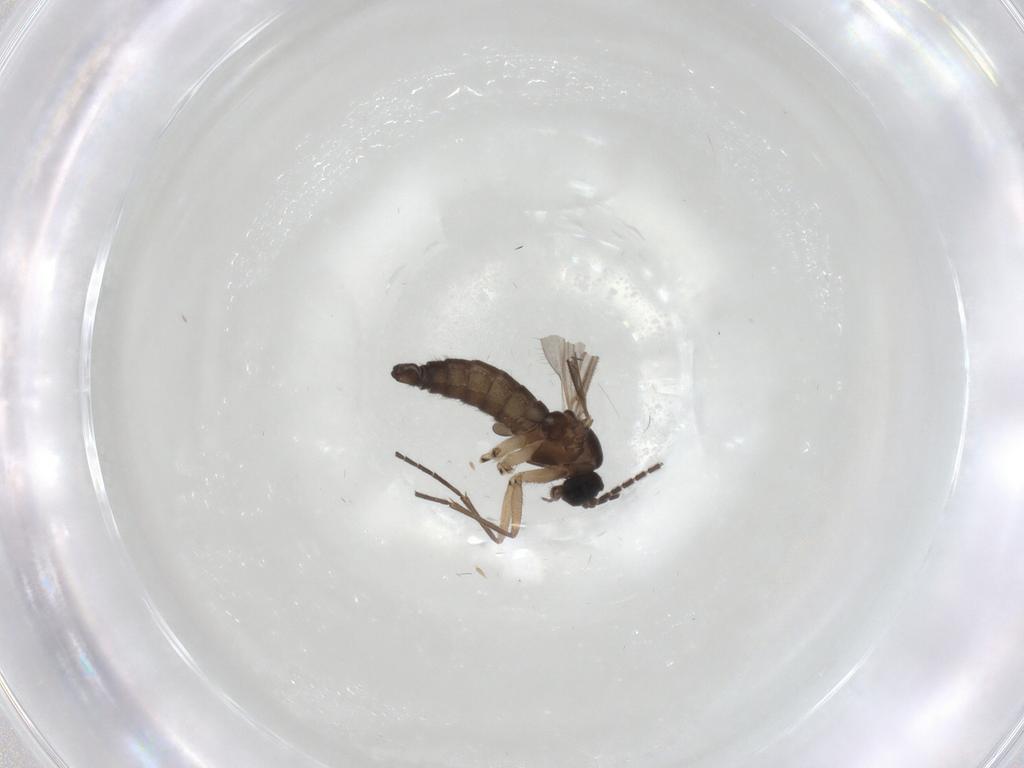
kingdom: Animalia
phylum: Arthropoda
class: Insecta
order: Diptera
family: Sciaridae
